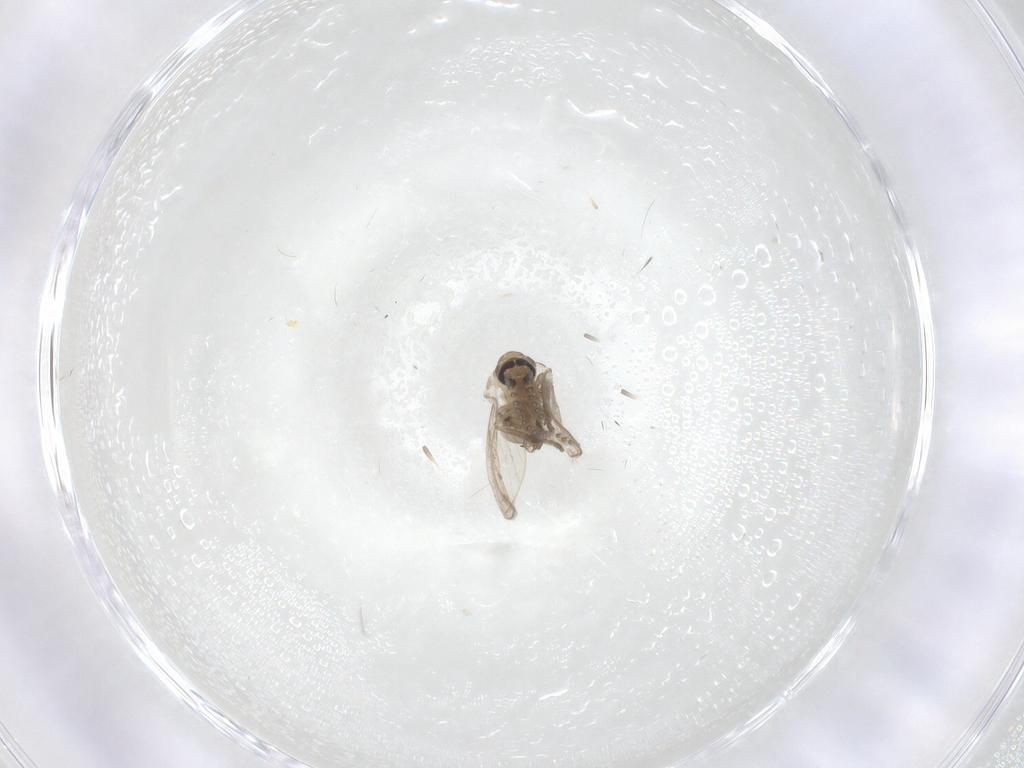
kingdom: Animalia
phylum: Arthropoda
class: Insecta
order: Diptera
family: Psychodidae
